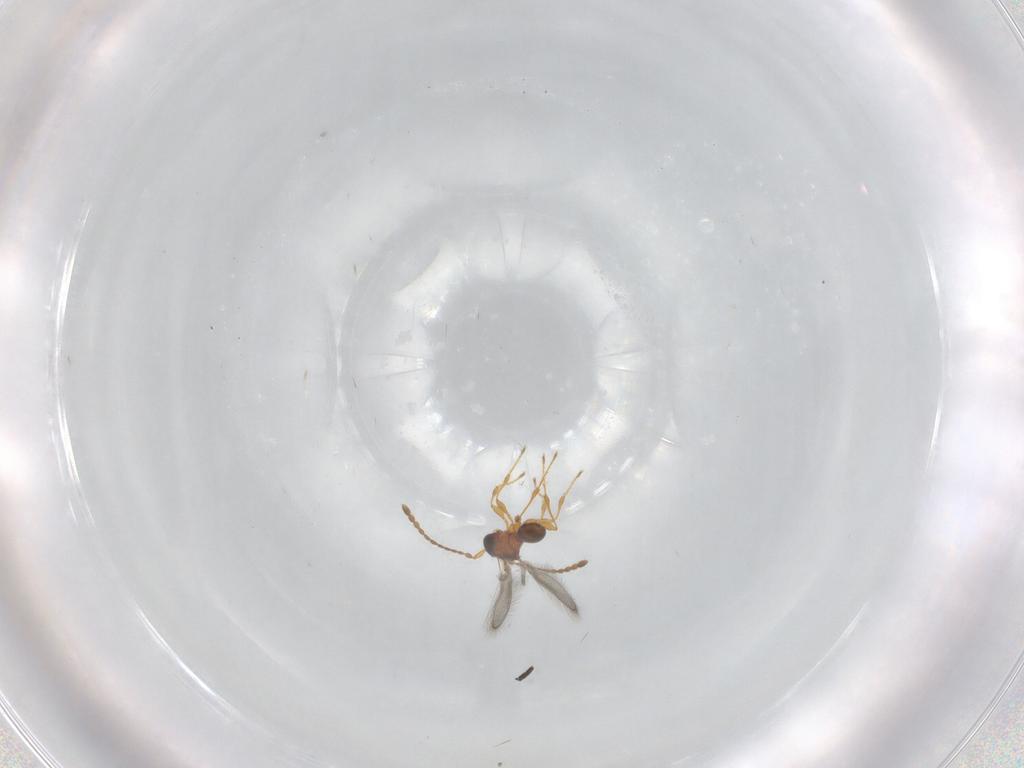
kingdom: Animalia
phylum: Arthropoda
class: Insecta
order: Hymenoptera
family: Diapriidae
